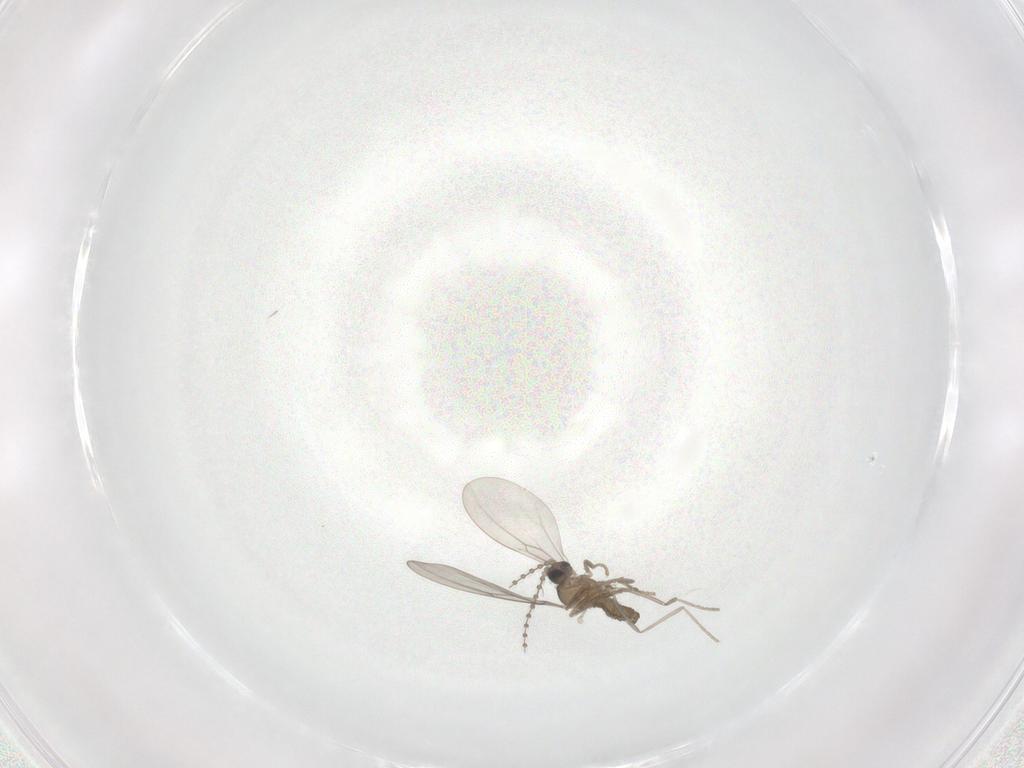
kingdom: Animalia
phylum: Arthropoda
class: Insecta
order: Diptera
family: Cecidomyiidae
